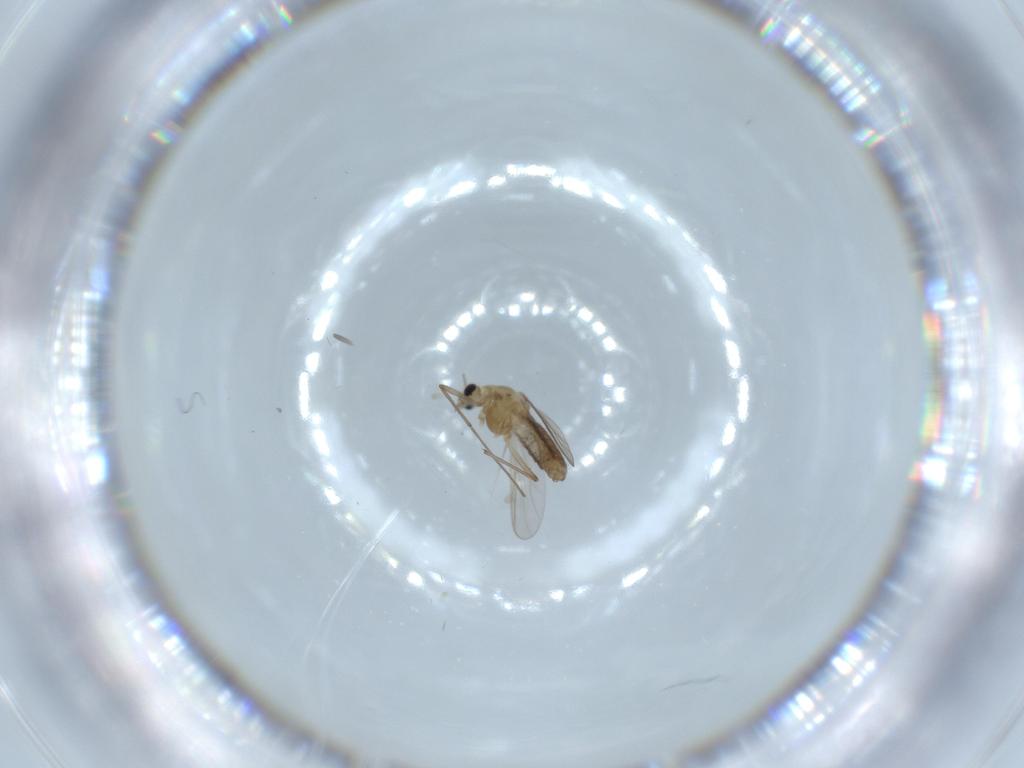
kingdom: Animalia
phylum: Arthropoda
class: Insecta
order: Diptera
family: Chironomidae
